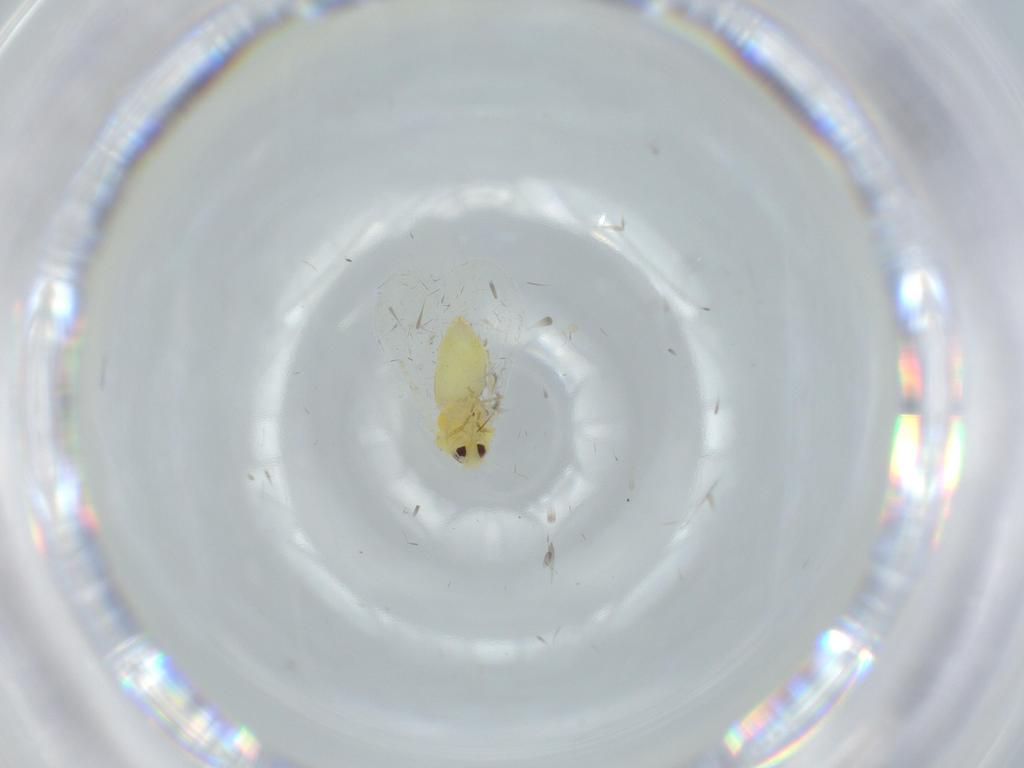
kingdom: Animalia
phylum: Arthropoda
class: Insecta
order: Hemiptera
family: Aleyrodidae
